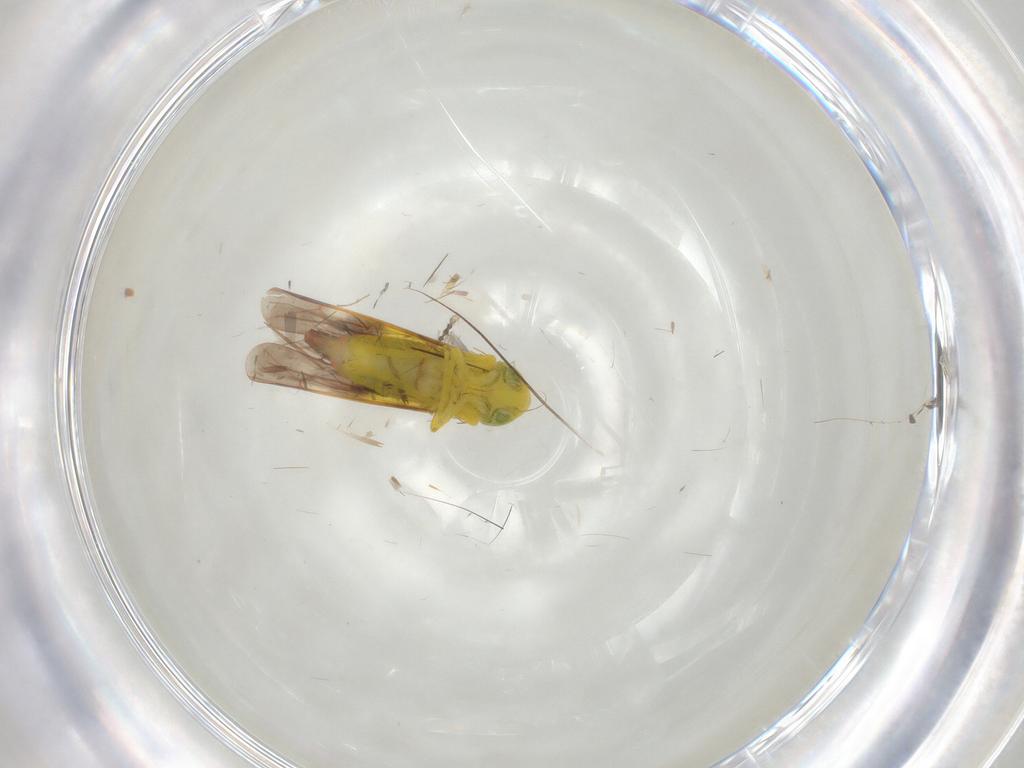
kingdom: Animalia
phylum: Arthropoda
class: Insecta
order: Hemiptera
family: Cicadellidae
